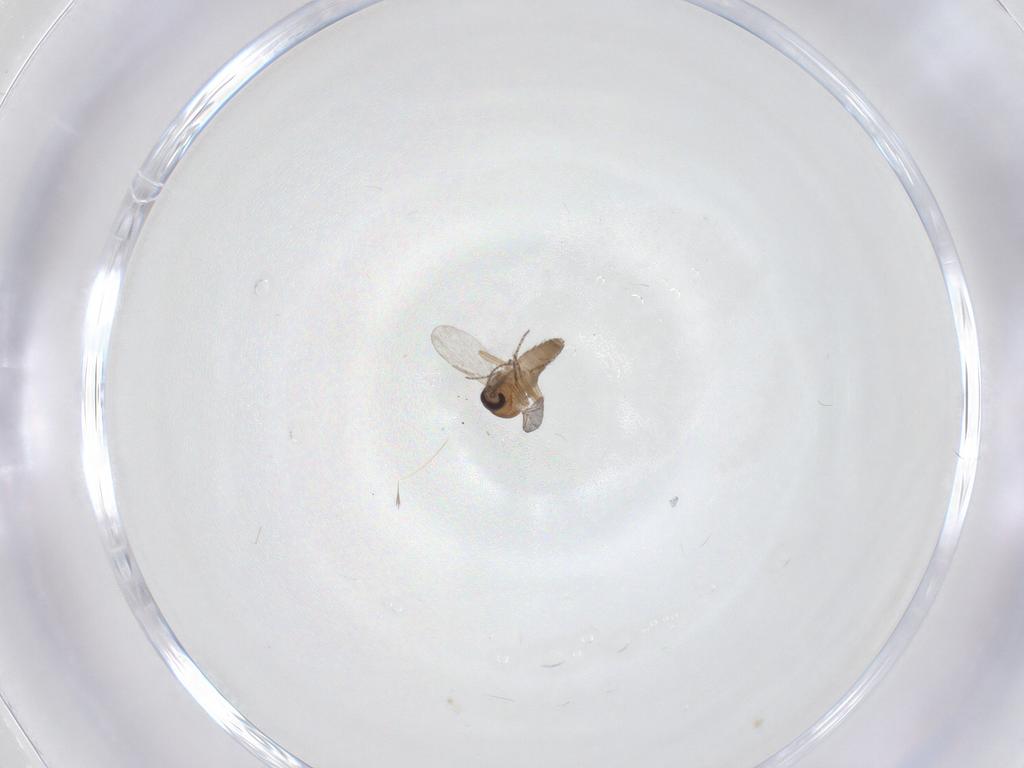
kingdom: Animalia
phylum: Arthropoda
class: Insecta
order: Diptera
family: Ceratopogonidae
